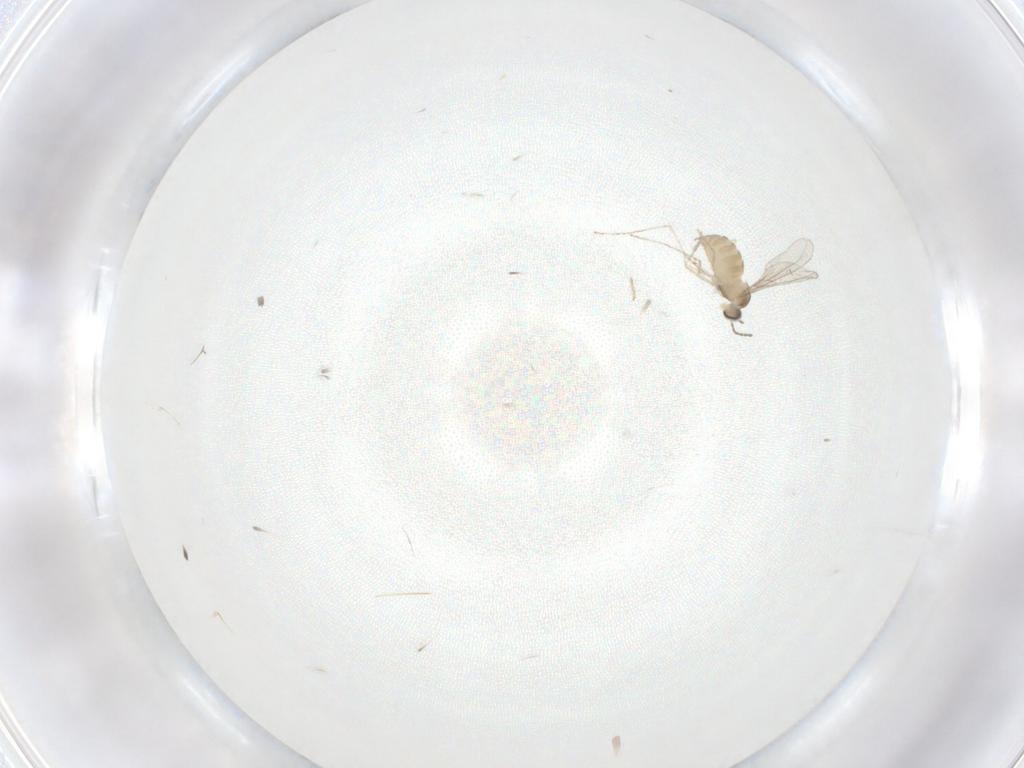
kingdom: Animalia
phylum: Arthropoda
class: Insecta
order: Diptera
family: Cecidomyiidae
